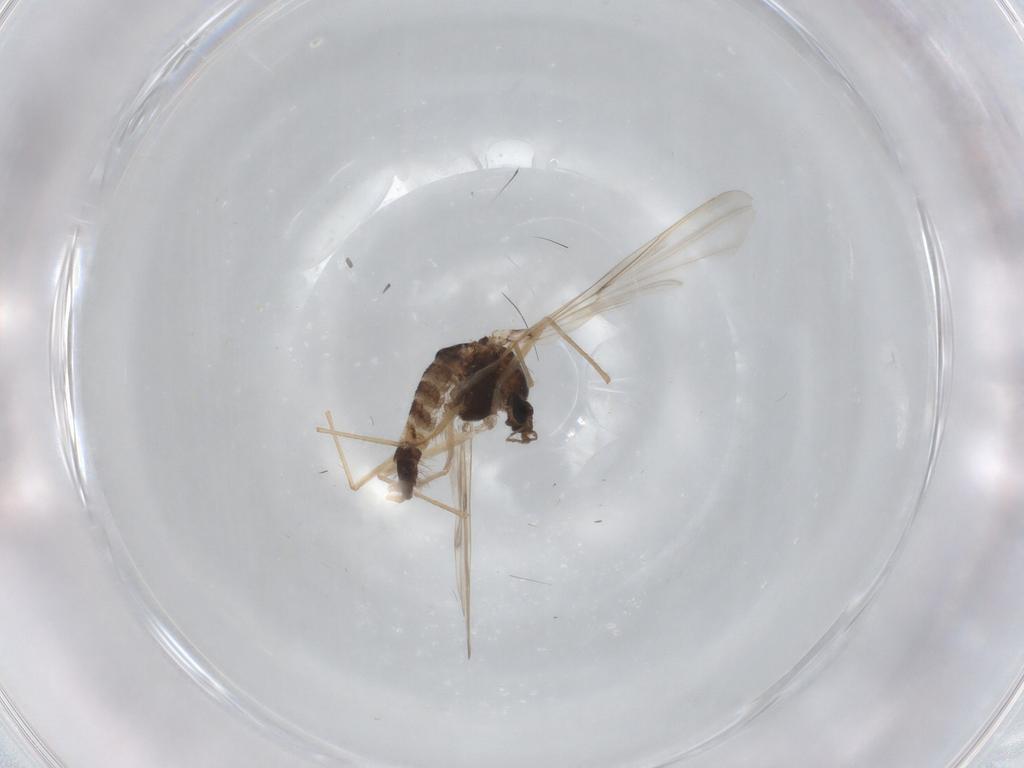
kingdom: Animalia
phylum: Arthropoda
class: Insecta
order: Diptera
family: Chironomidae
